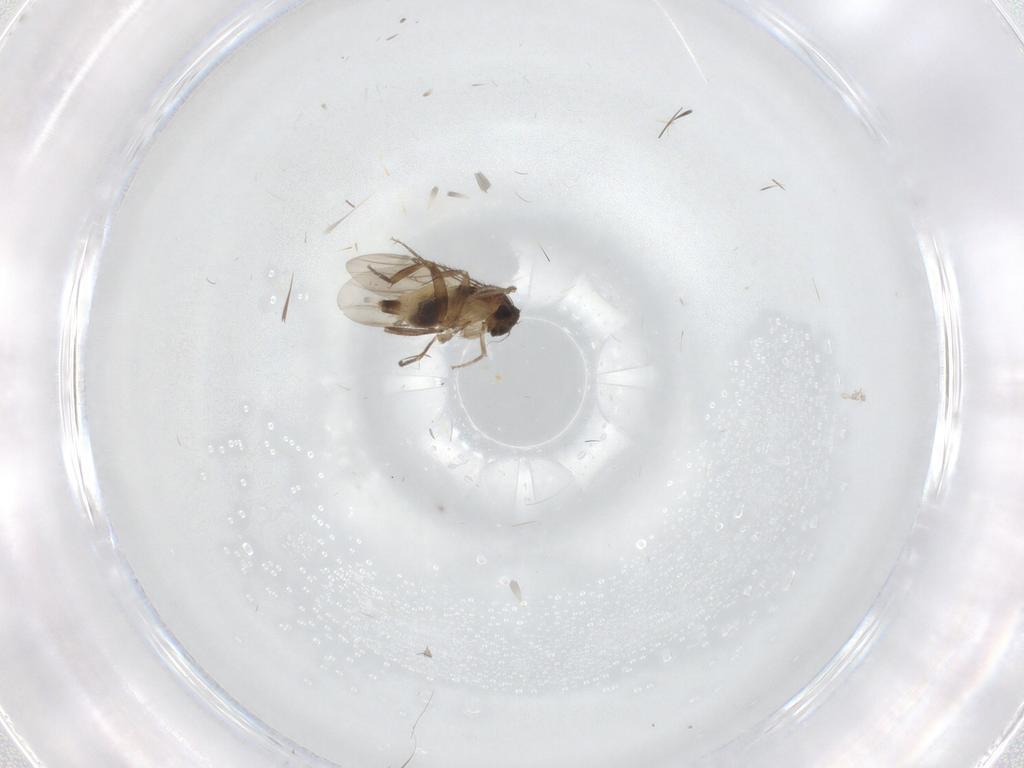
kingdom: Animalia
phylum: Arthropoda
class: Insecta
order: Diptera
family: Phoridae
